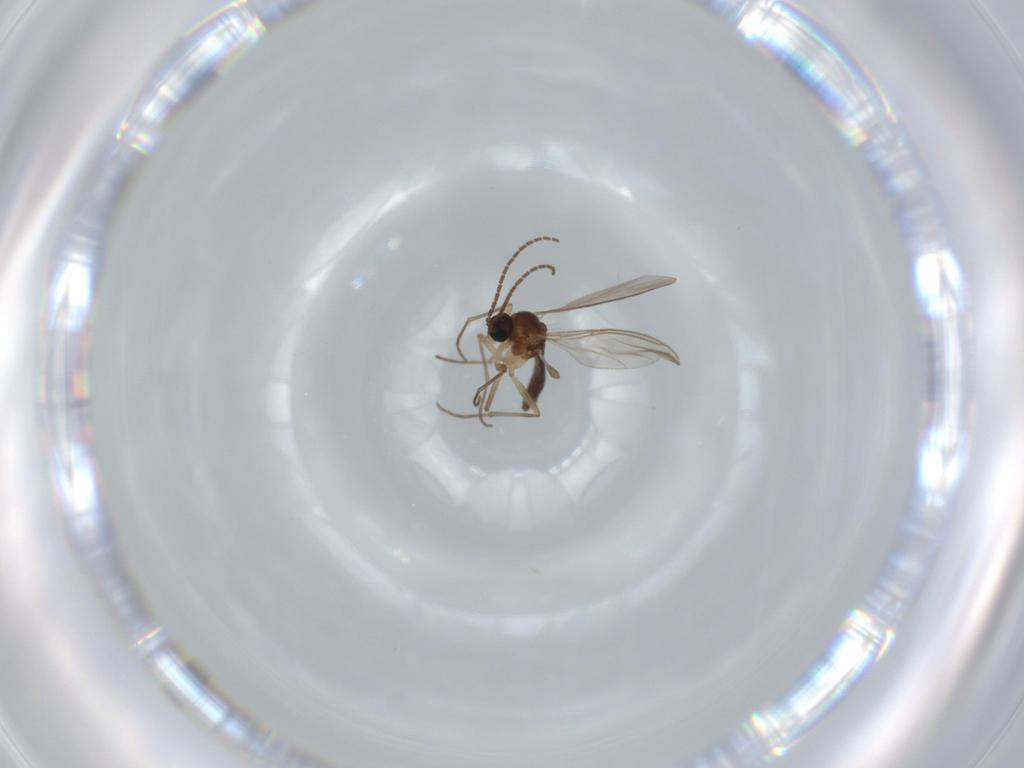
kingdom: Animalia
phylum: Arthropoda
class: Insecta
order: Diptera
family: Sciaridae
